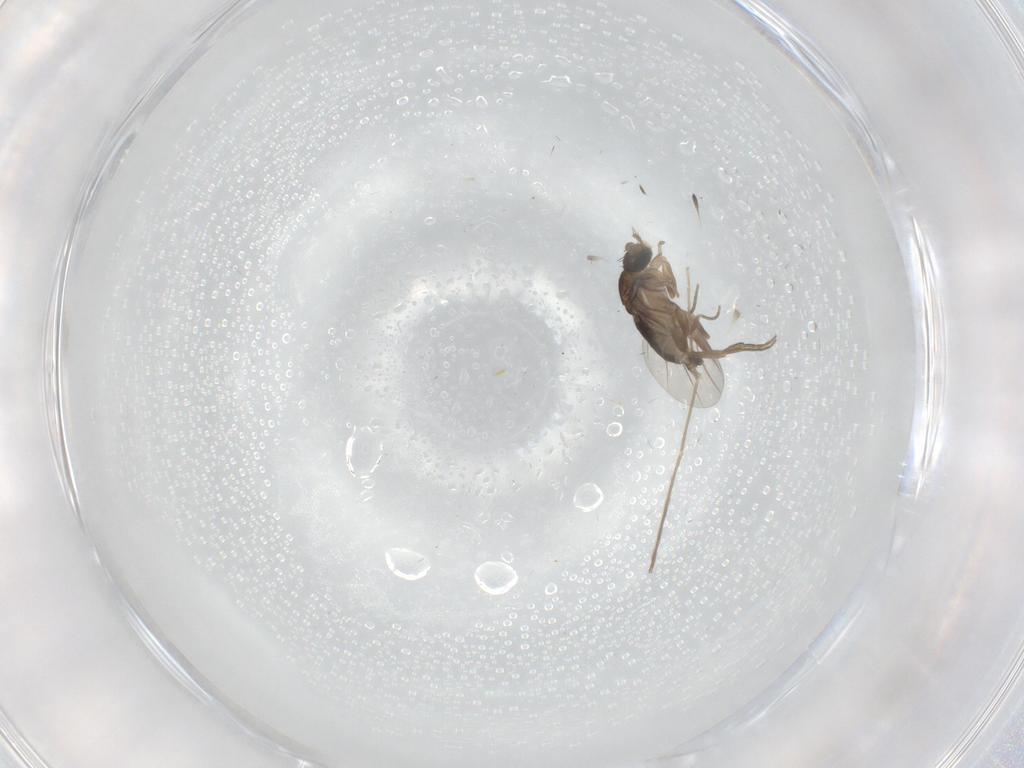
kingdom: Animalia
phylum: Arthropoda
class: Insecta
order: Diptera
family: Phoridae
